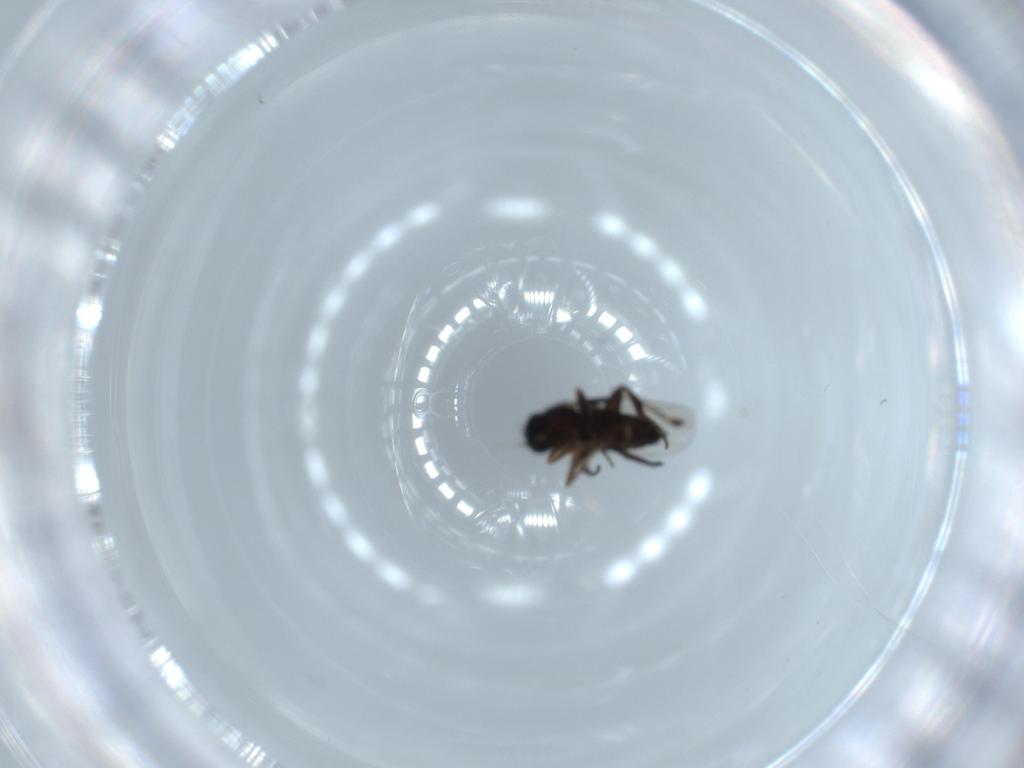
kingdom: Animalia
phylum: Arthropoda
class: Insecta
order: Diptera
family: Phoridae
